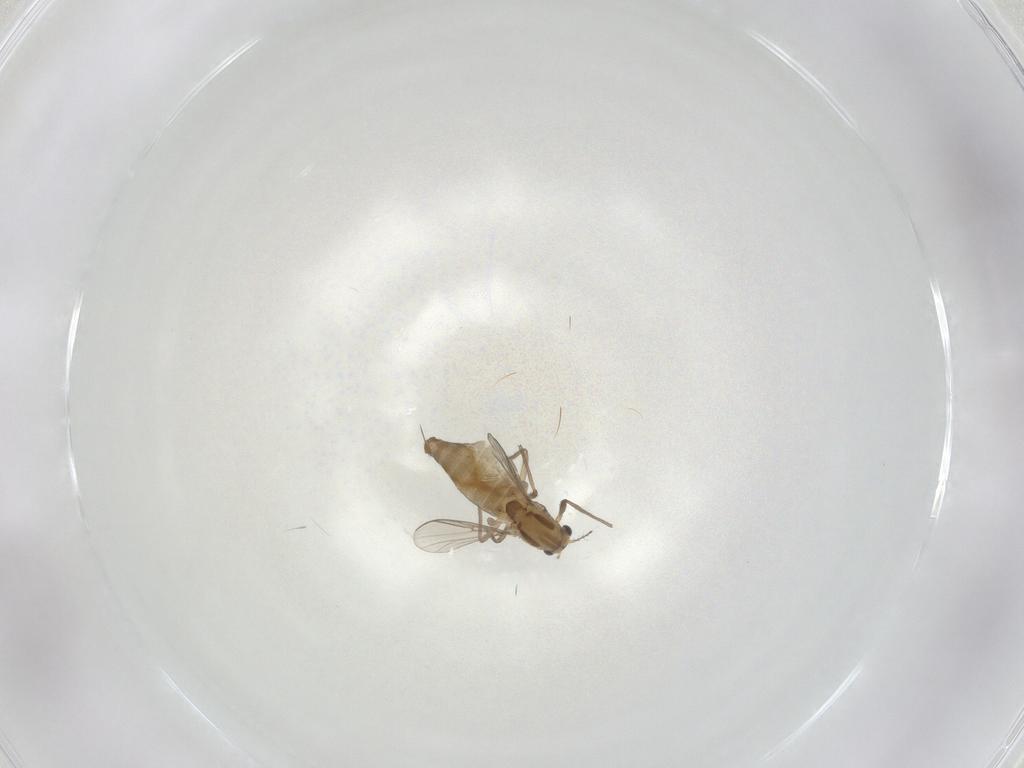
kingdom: Animalia
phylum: Arthropoda
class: Insecta
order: Diptera
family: Chironomidae
